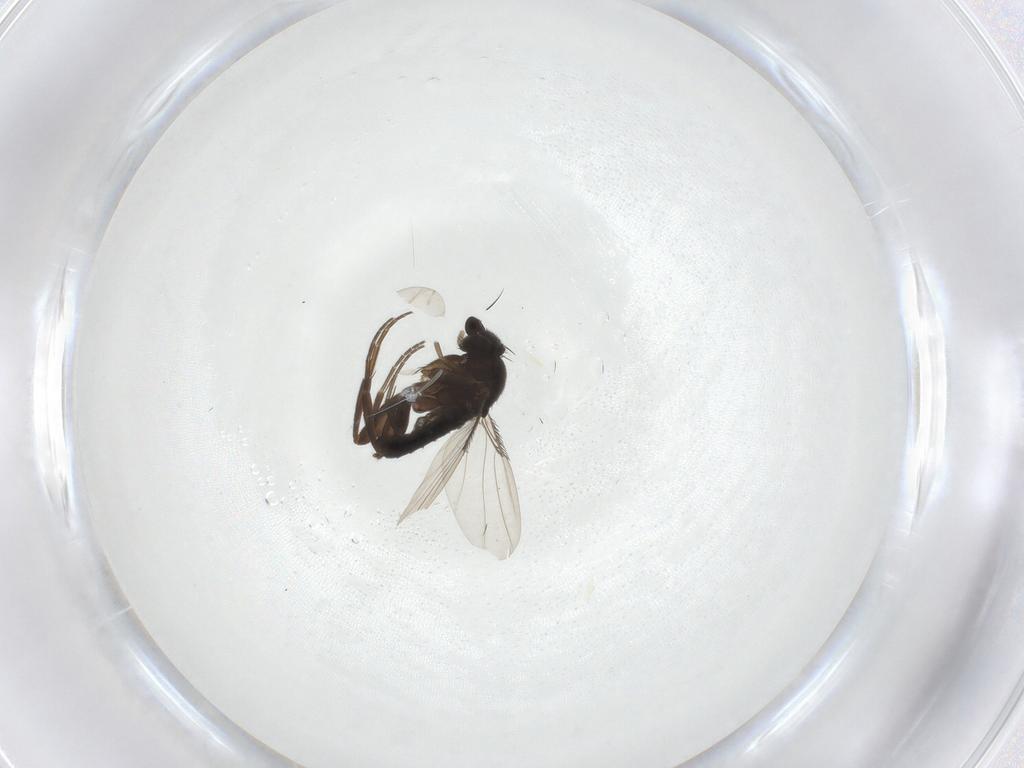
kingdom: Animalia
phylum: Arthropoda
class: Insecta
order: Diptera
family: Phoridae
